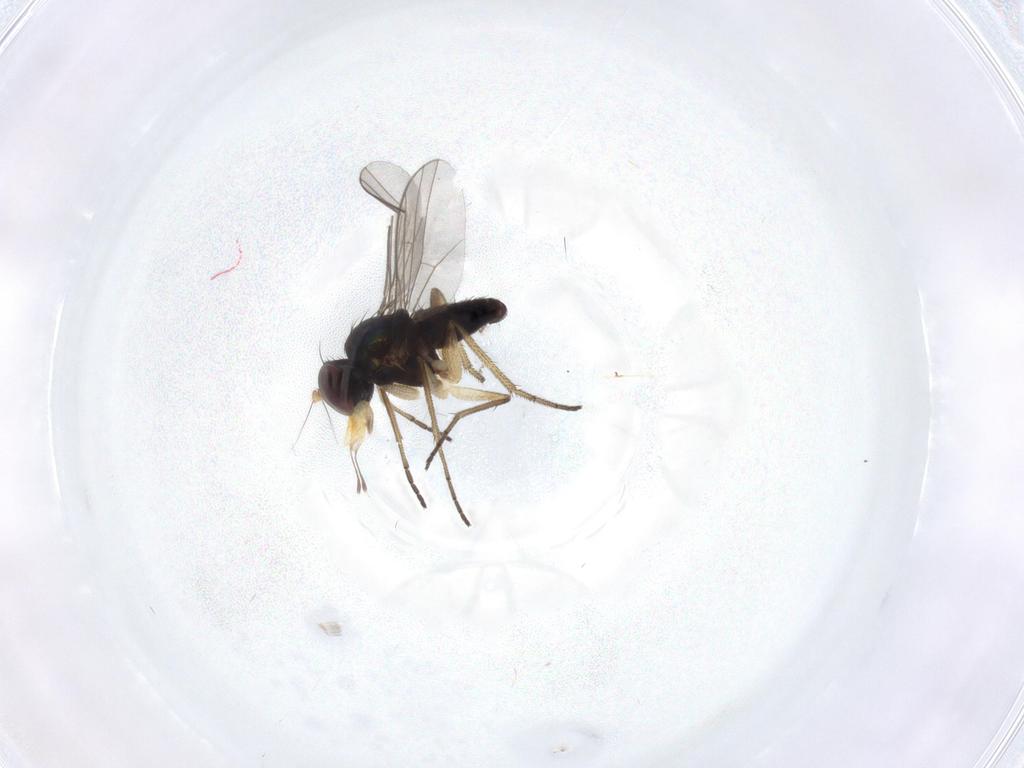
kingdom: Animalia
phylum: Arthropoda
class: Insecta
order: Diptera
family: Dolichopodidae
